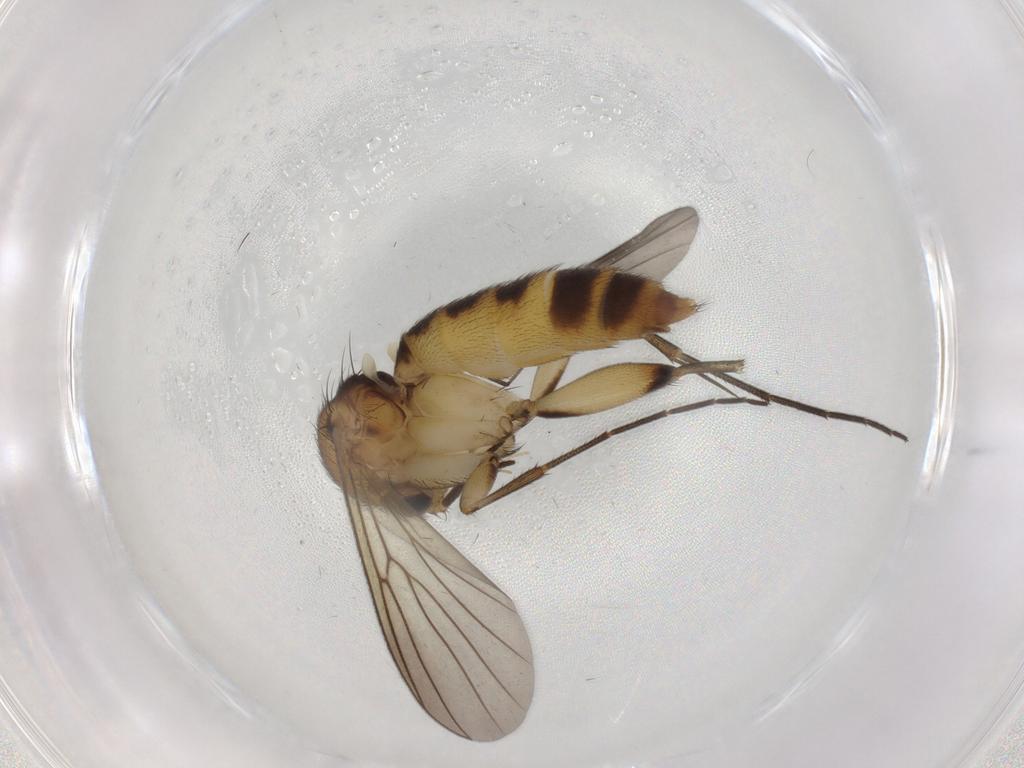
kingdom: Animalia
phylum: Arthropoda
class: Insecta
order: Diptera
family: Mycetophilidae
